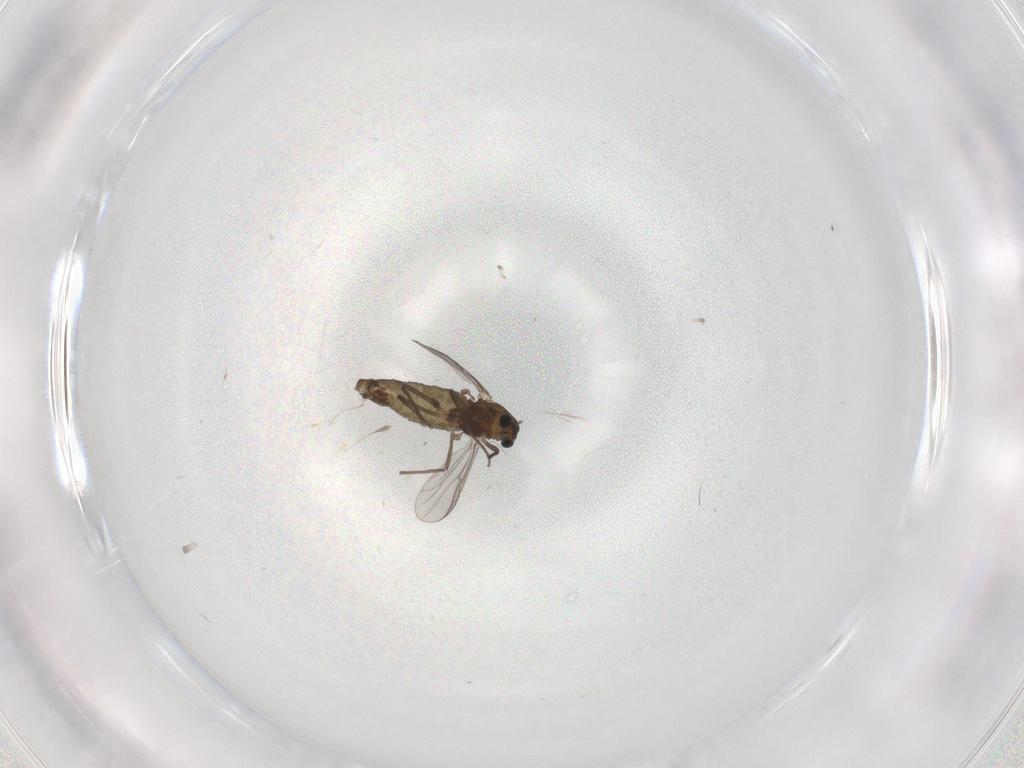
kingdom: Animalia
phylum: Arthropoda
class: Insecta
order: Diptera
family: Chironomidae
